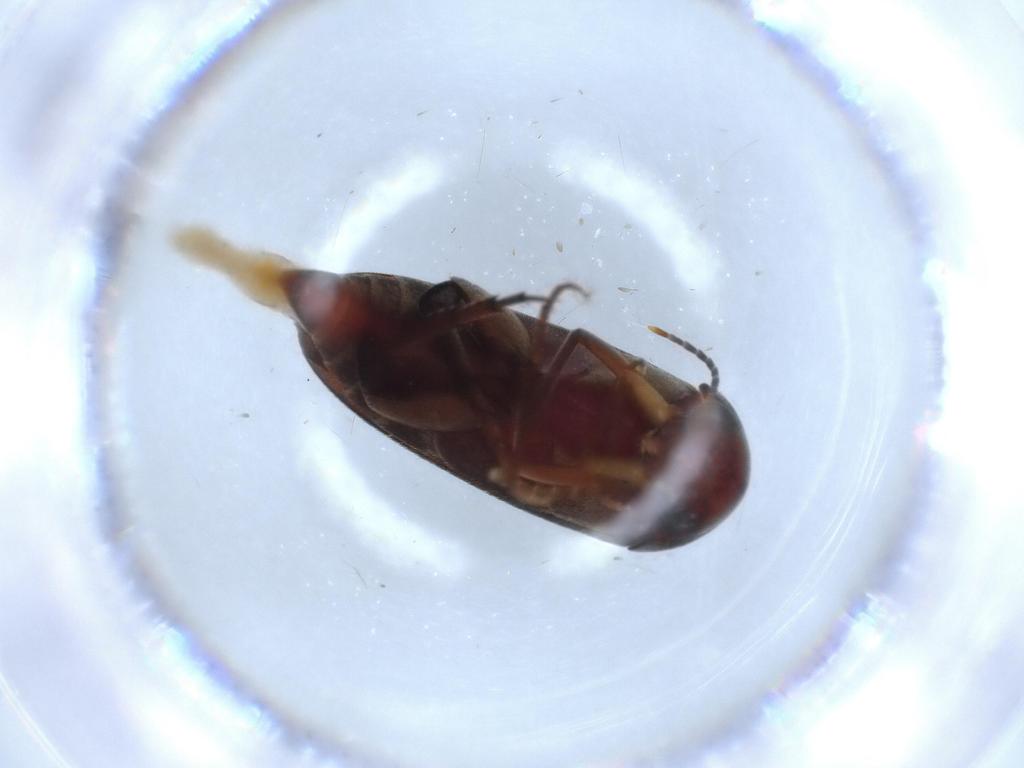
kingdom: Animalia
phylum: Arthropoda
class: Insecta
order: Coleoptera
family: Mordellidae
